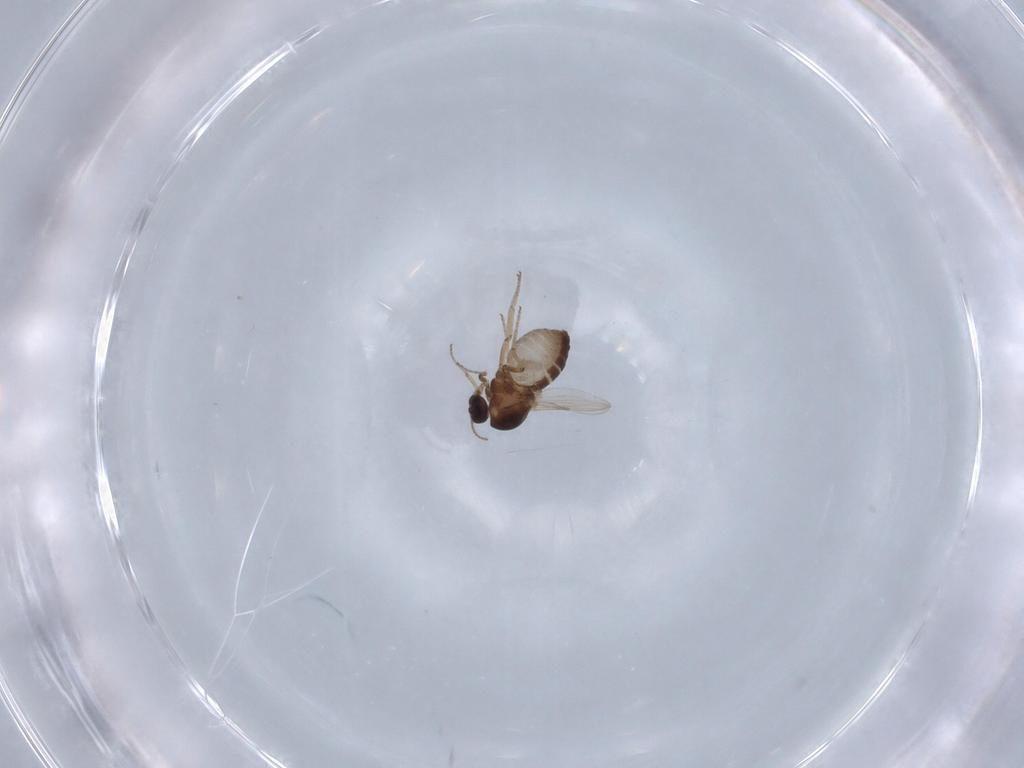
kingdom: Animalia
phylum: Arthropoda
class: Insecta
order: Diptera
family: Ceratopogonidae
